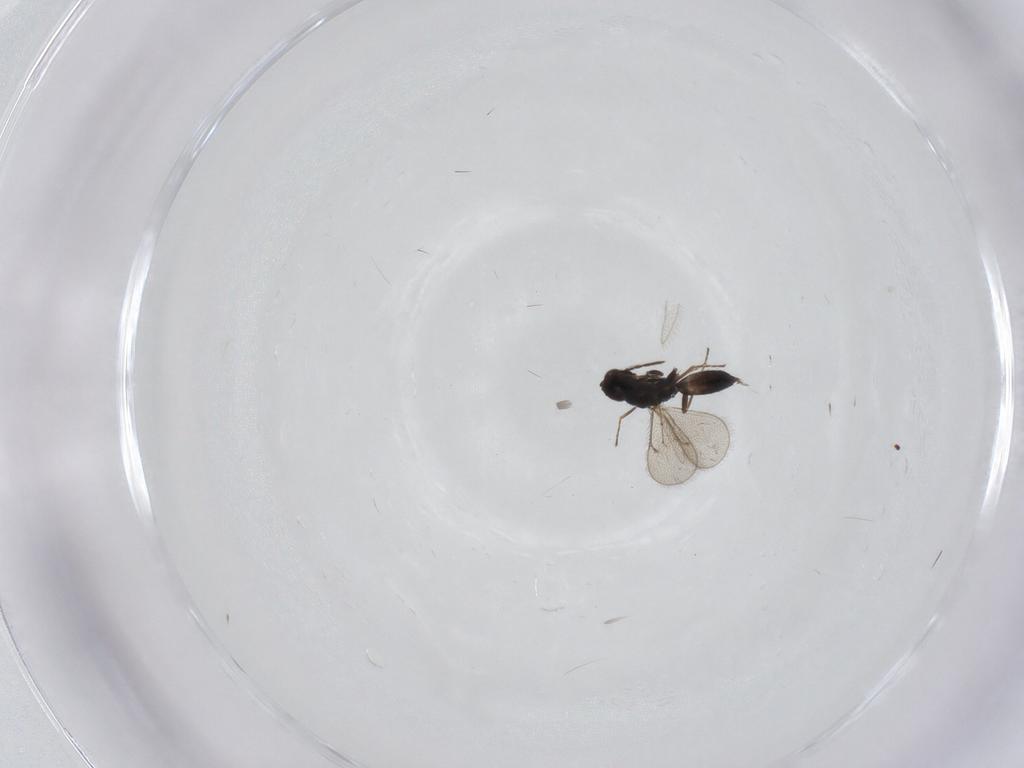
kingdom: Animalia
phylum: Arthropoda
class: Insecta
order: Hymenoptera
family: Eulophidae
